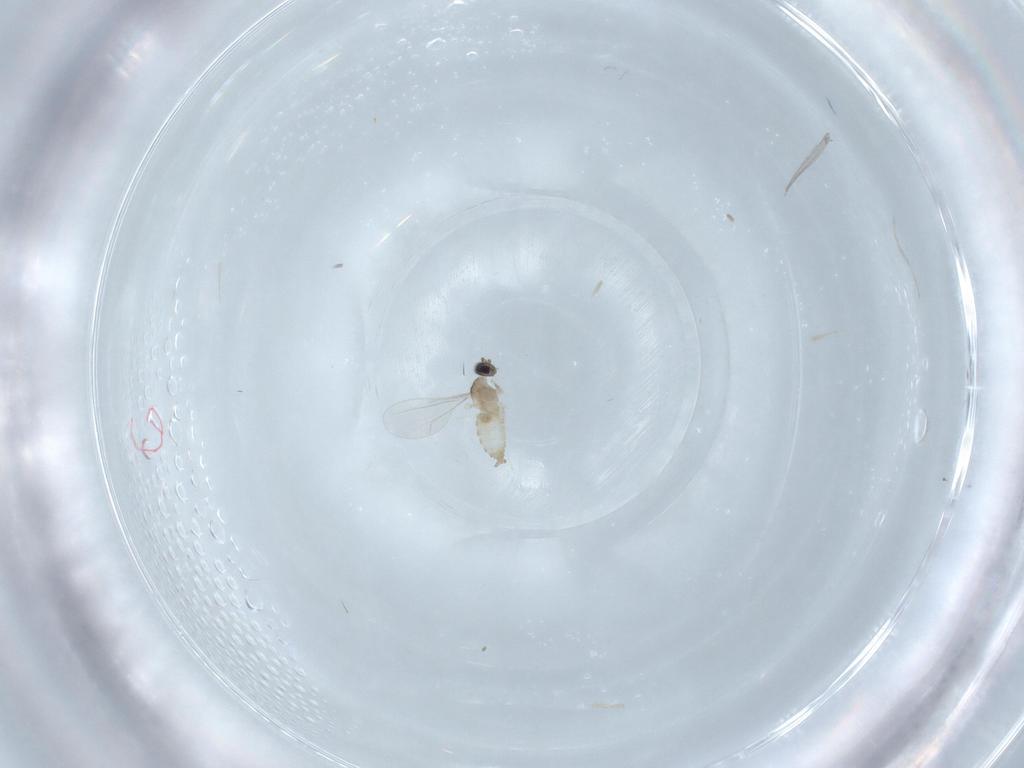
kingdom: Animalia
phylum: Arthropoda
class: Insecta
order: Diptera
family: Cecidomyiidae
